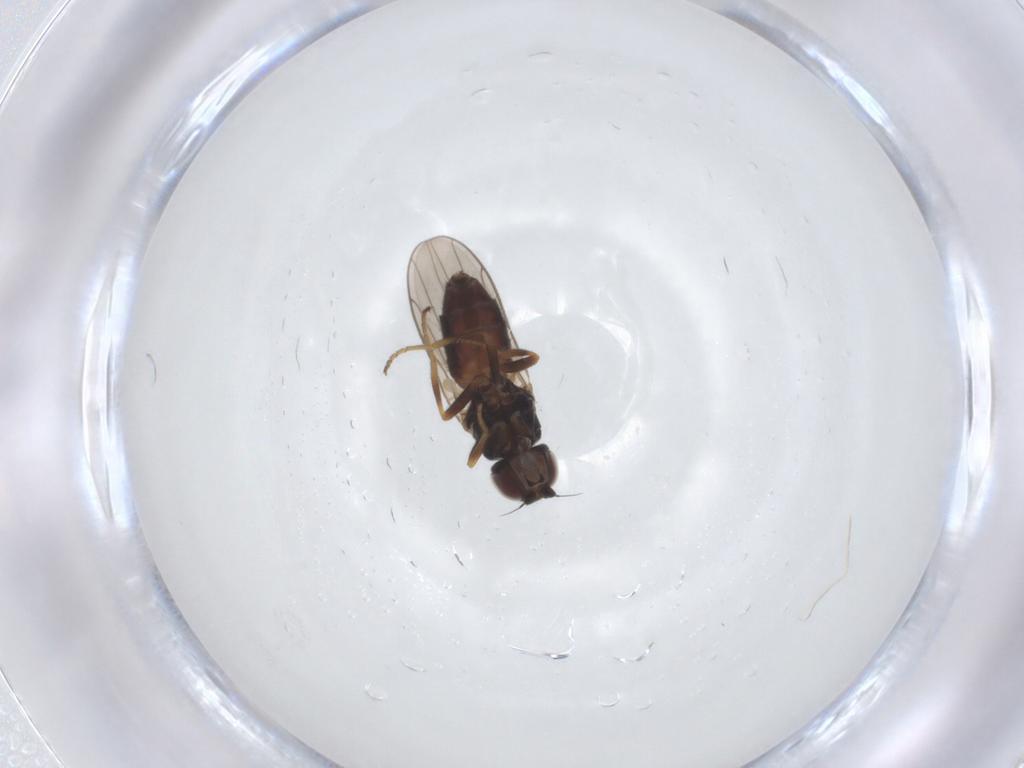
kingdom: Animalia
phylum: Arthropoda
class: Insecta
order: Diptera
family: Chloropidae
